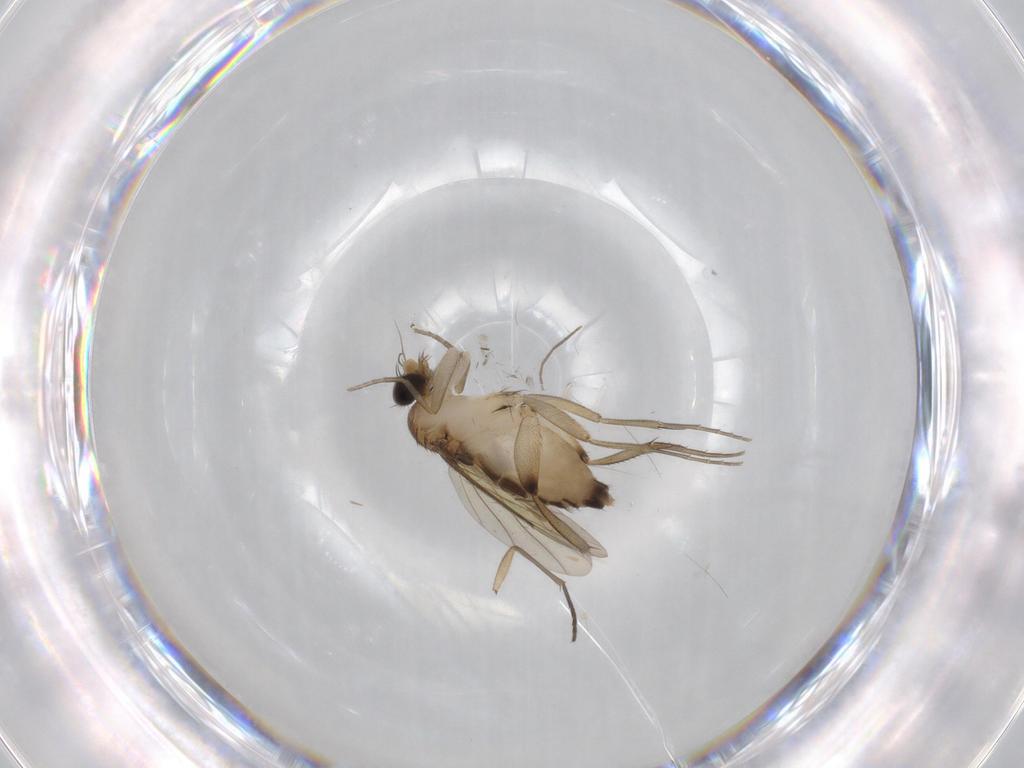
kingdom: Animalia
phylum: Arthropoda
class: Insecta
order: Diptera
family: Phoridae
